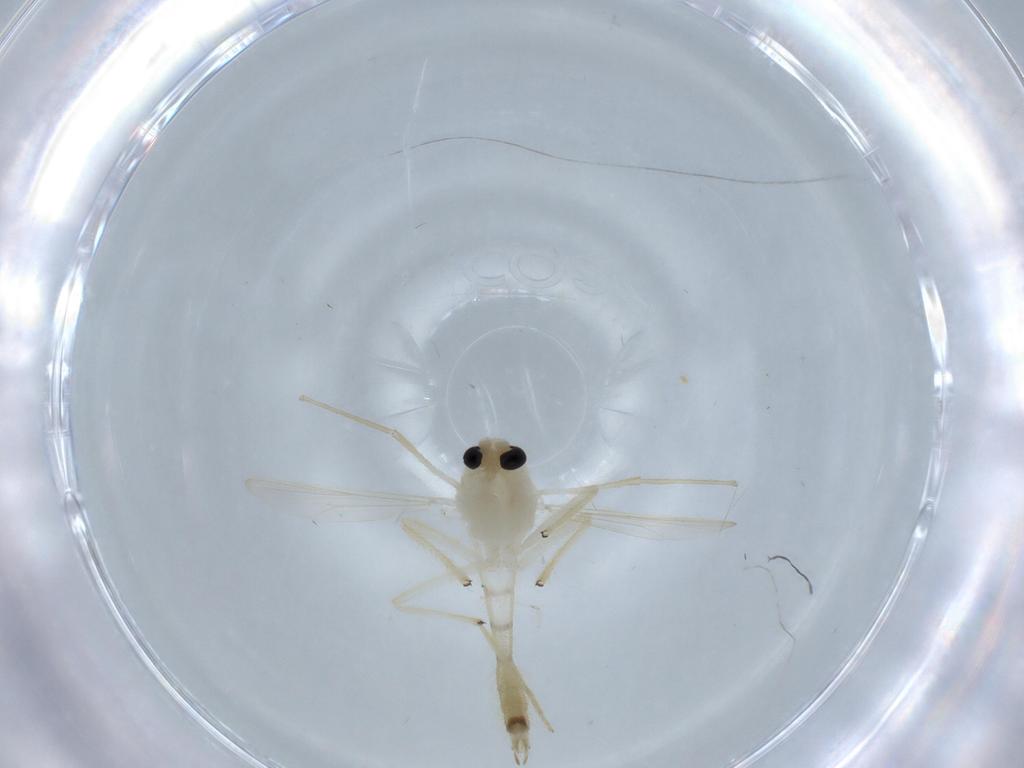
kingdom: Animalia
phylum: Arthropoda
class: Insecta
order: Diptera
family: Chironomidae
